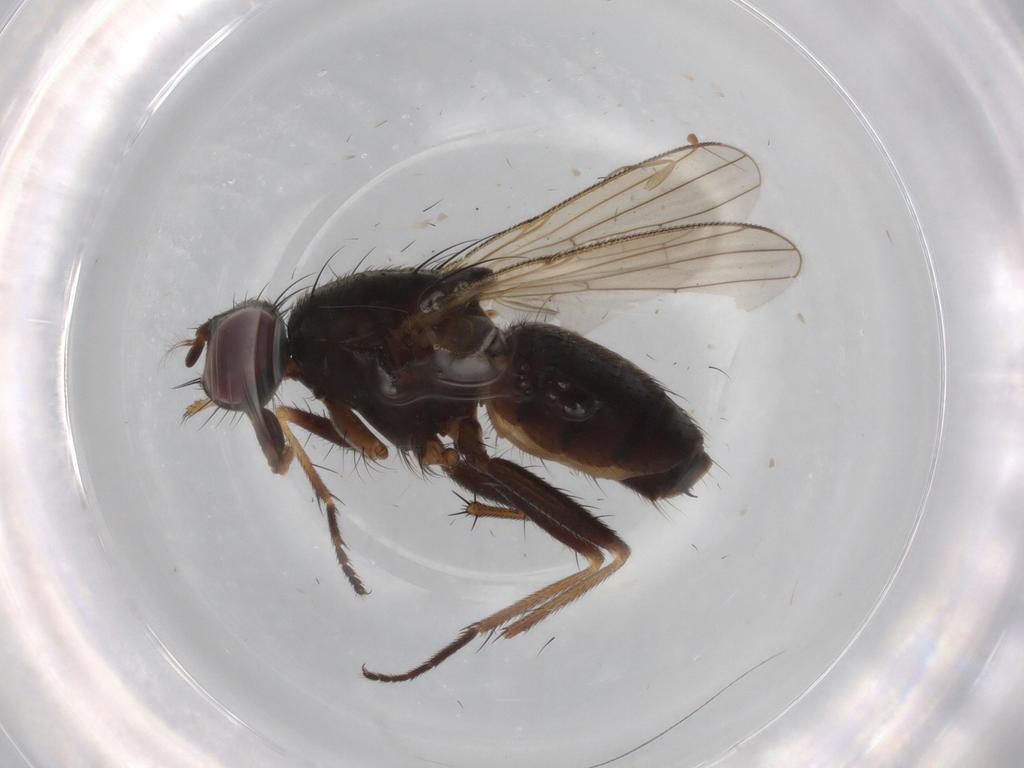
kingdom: Animalia
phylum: Arthropoda
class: Insecta
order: Diptera
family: Muscidae
